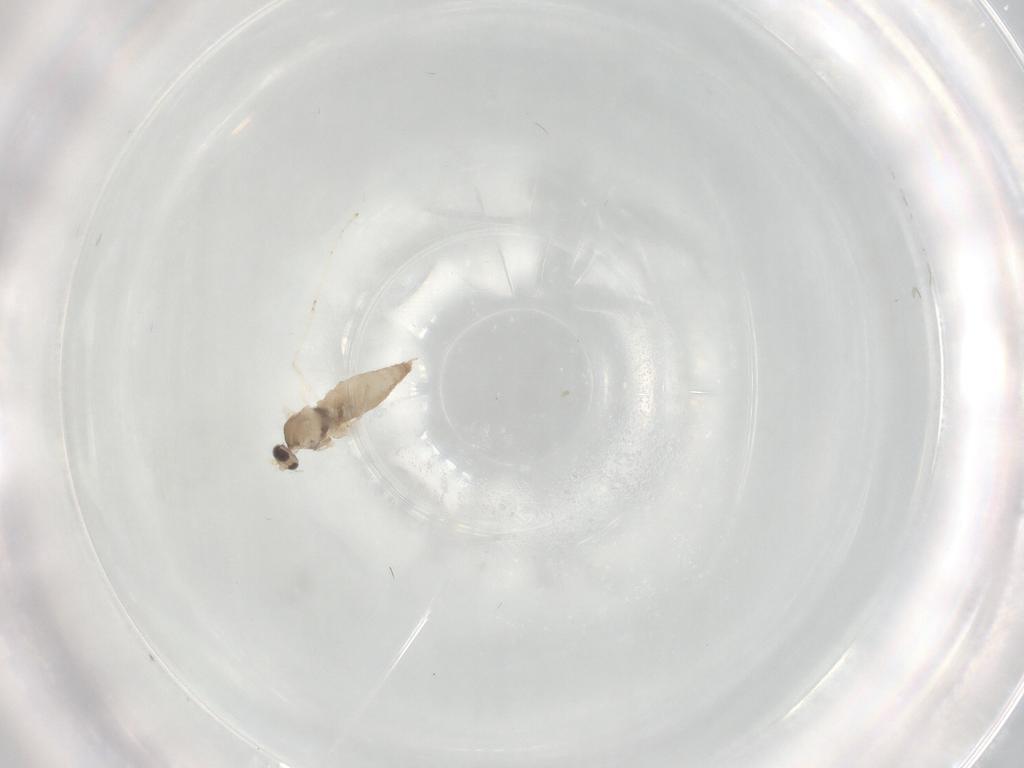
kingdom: Animalia
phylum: Arthropoda
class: Insecta
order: Diptera
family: Cecidomyiidae
